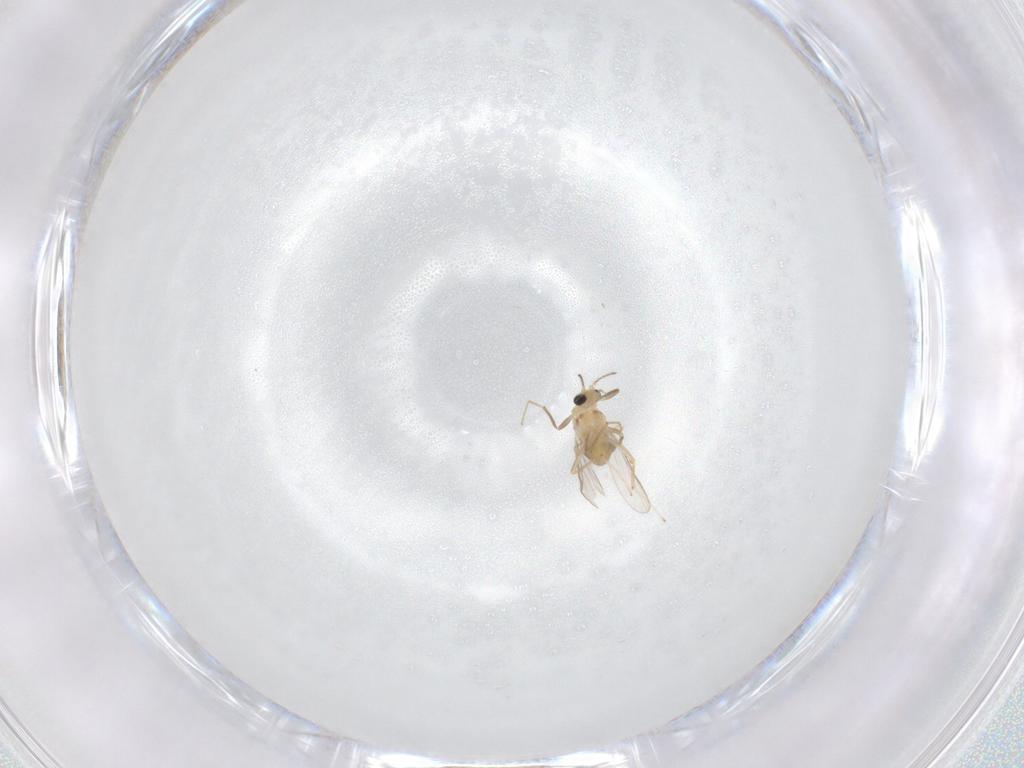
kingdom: Animalia
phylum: Arthropoda
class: Insecta
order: Diptera
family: Chironomidae
